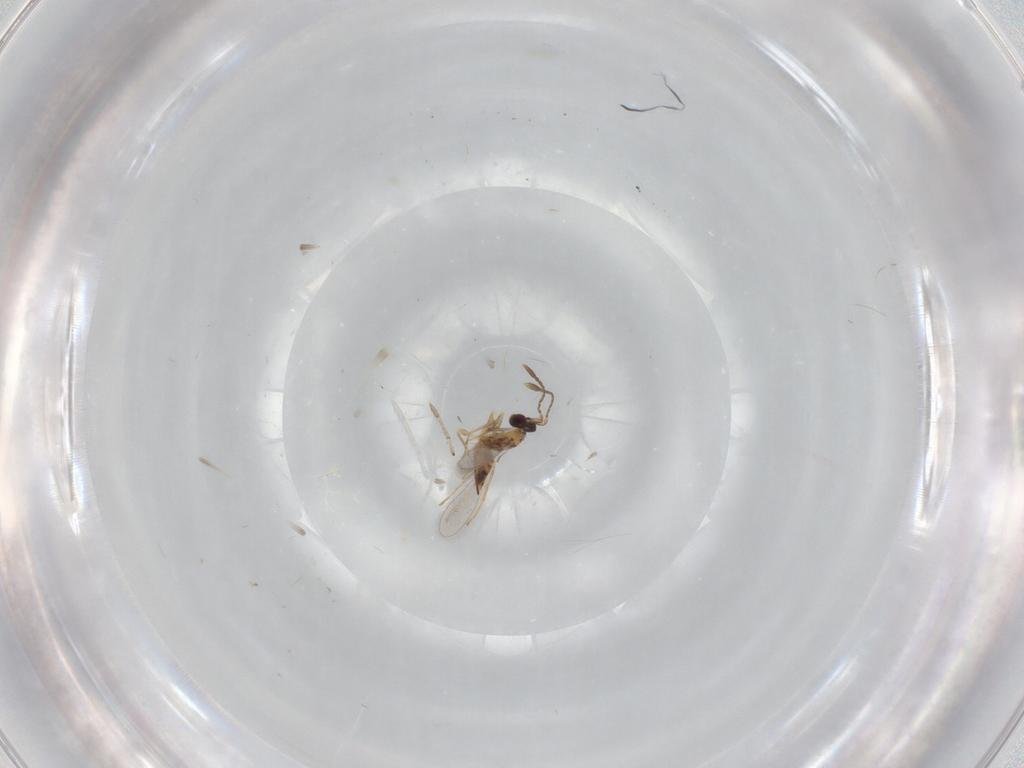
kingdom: Animalia
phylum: Arthropoda
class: Insecta
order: Hymenoptera
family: Mymaridae
